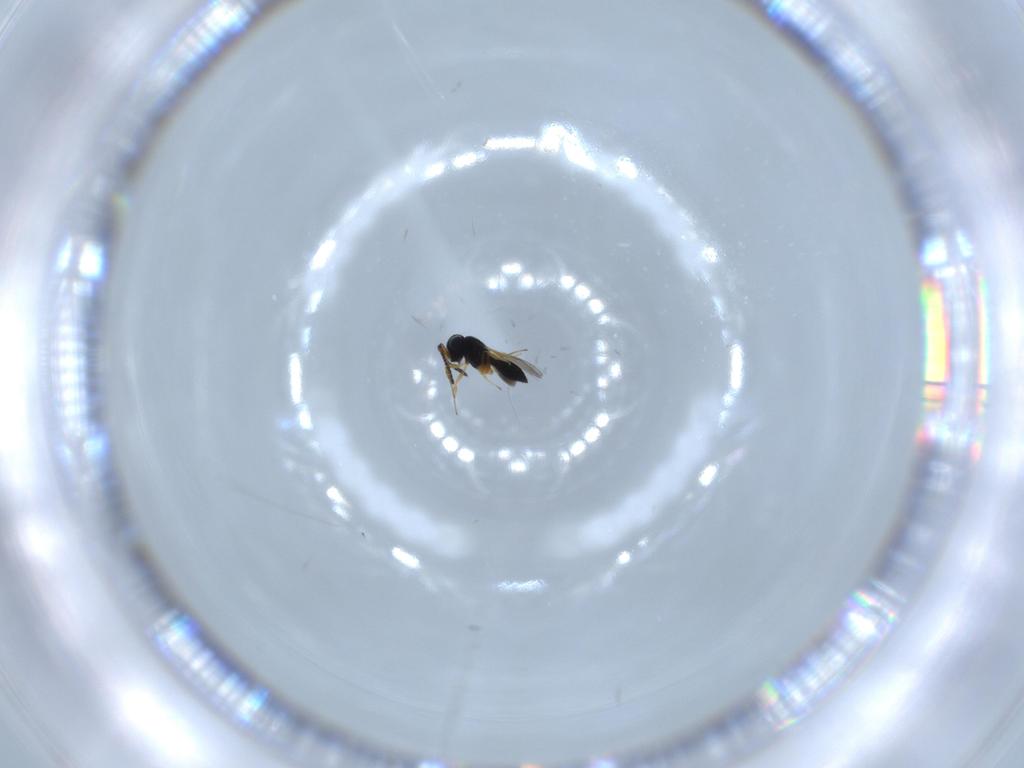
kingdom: Animalia
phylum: Arthropoda
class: Insecta
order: Hymenoptera
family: Scelionidae
